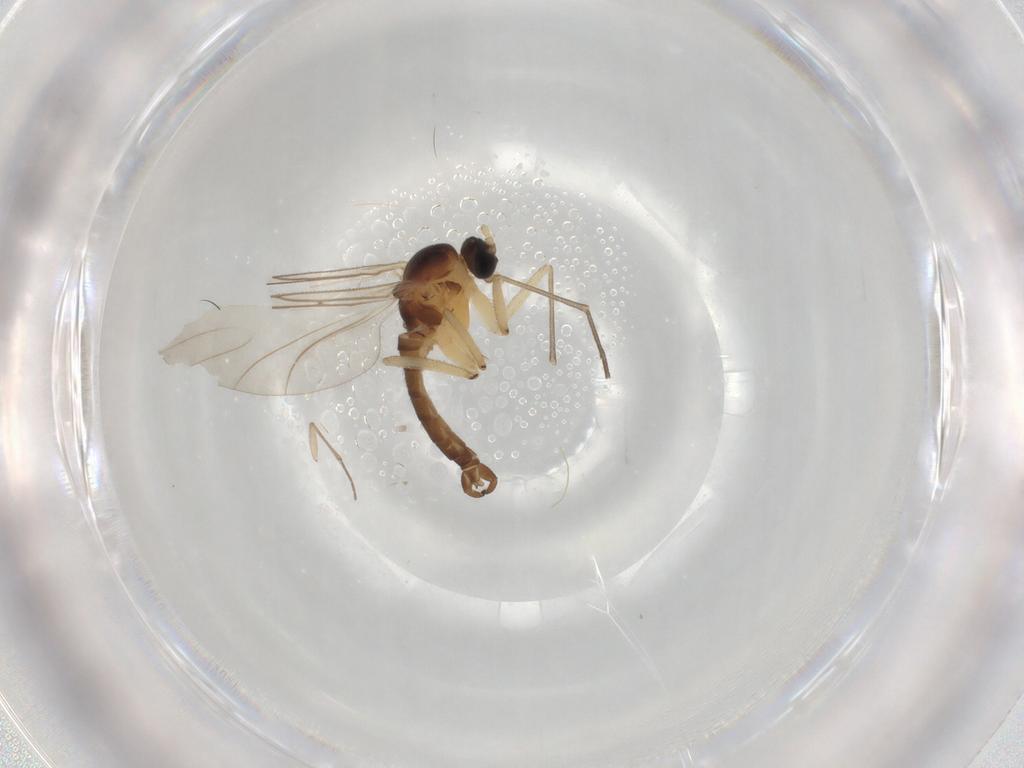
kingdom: Animalia
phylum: Arthropoda
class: Insecta
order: Diptera
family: Sciaridae
